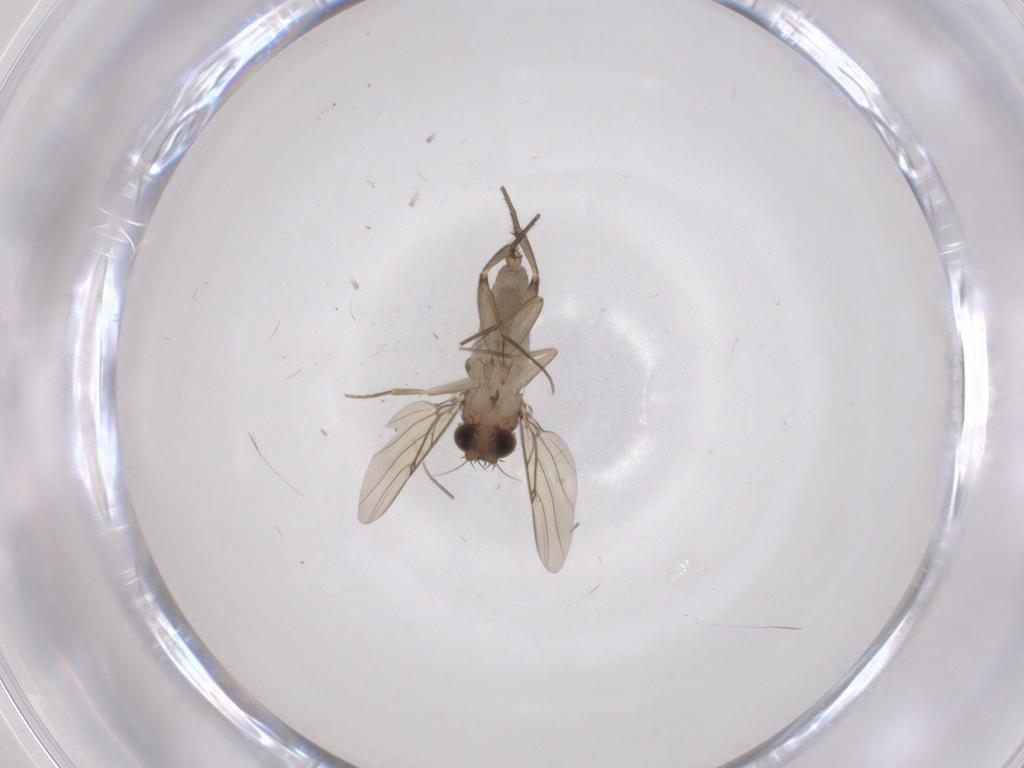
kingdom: Animalia
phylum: Arthropoda
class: Insecta
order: Diptera
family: Phoridae
